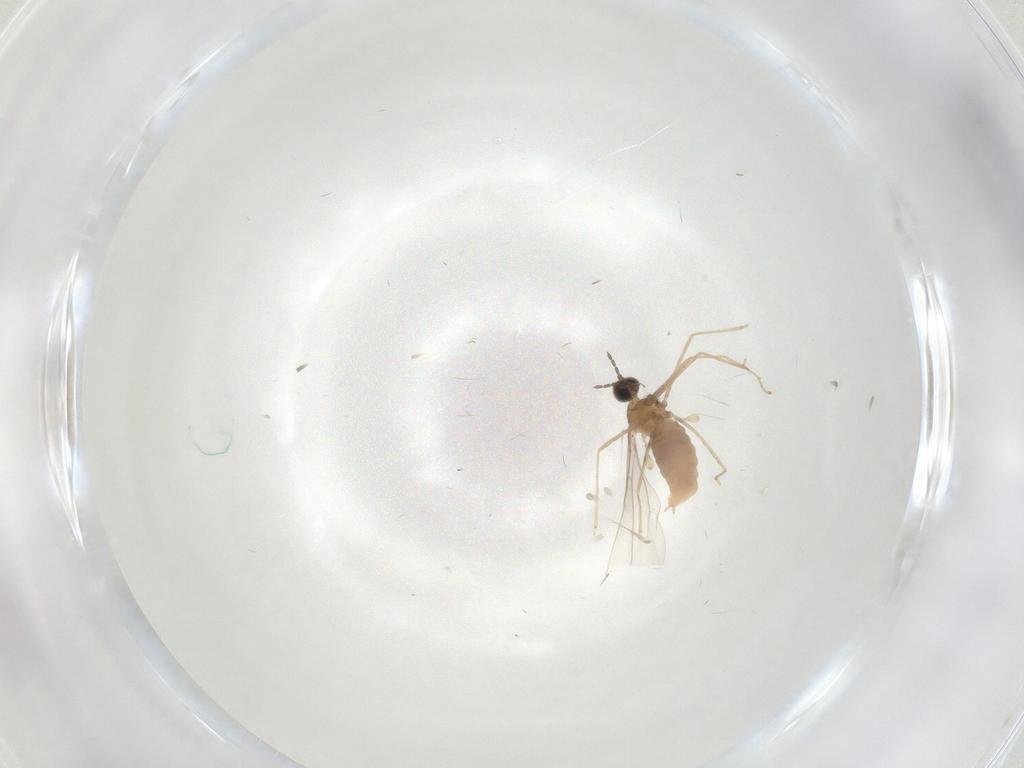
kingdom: Animalia
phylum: Arthropoda
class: Insecta
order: Diptera
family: Cecidomyiidae
